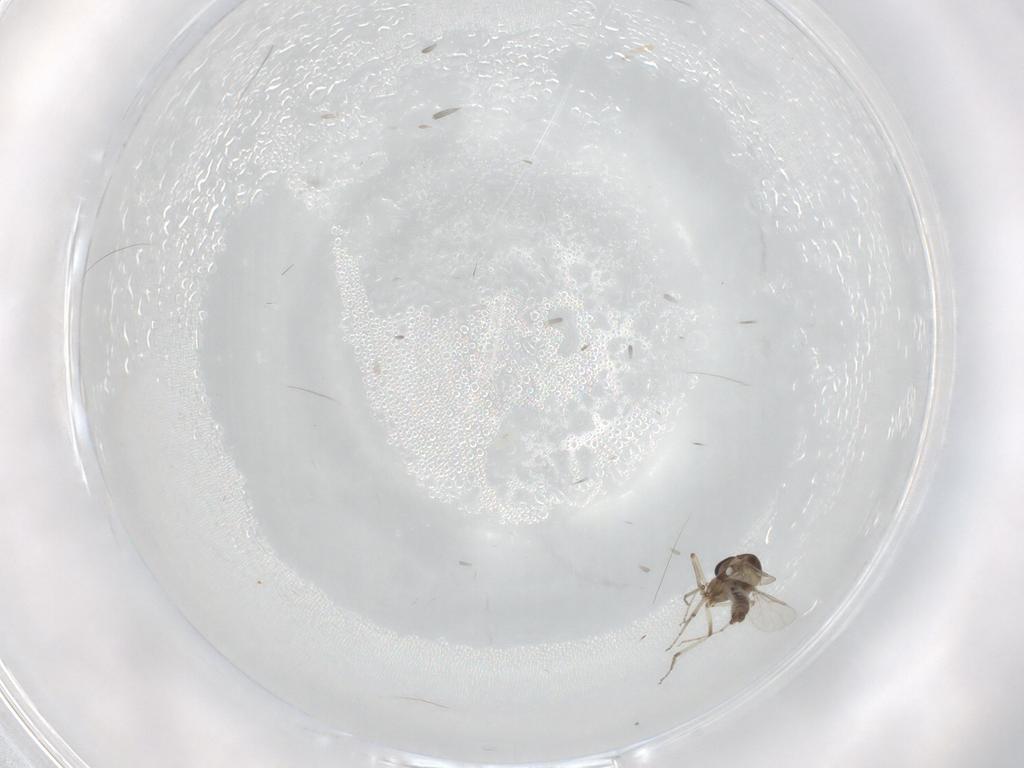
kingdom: Animalia
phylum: Arthropoda
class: Insecta
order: Diptera
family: Ceratopogonidae
